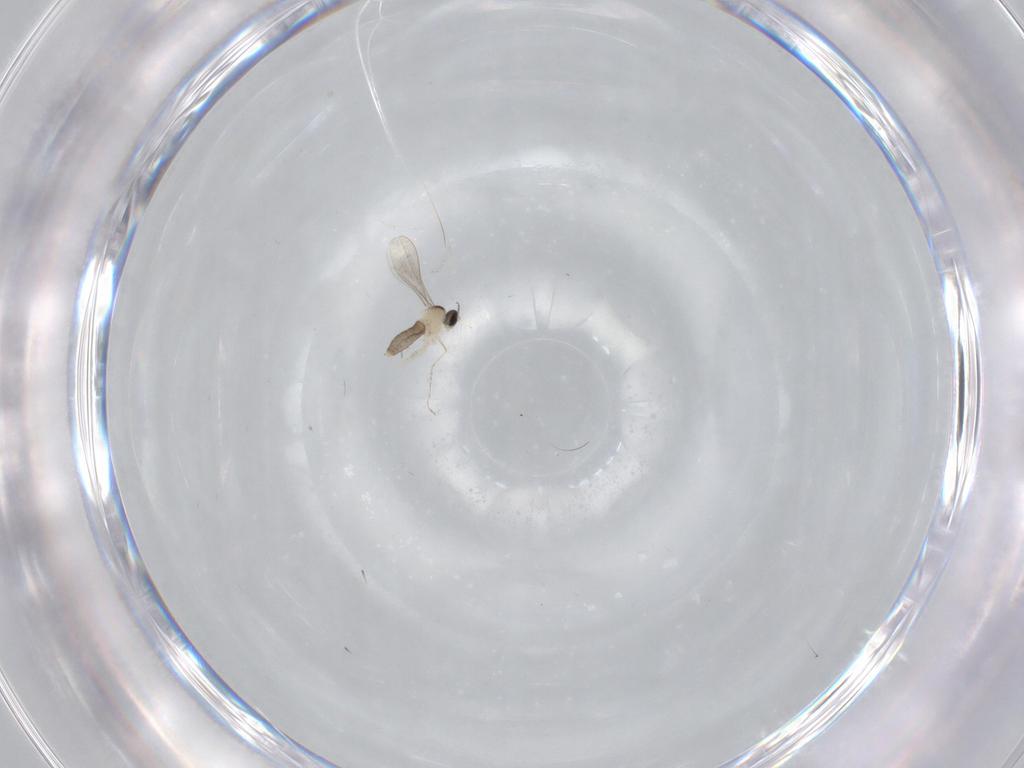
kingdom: Animalia
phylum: Arthropoda
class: Insecta
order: Diptera
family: Cecidomyiidae
